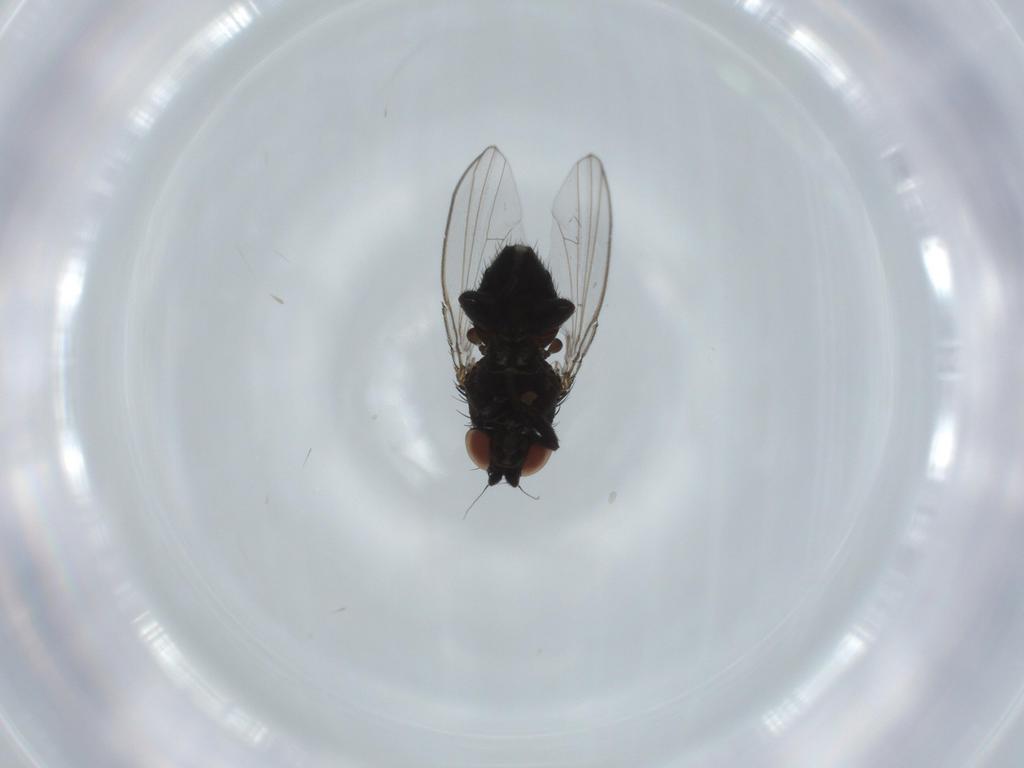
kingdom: Animalia
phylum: Arthropoda
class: Insecta
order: Diptera
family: Milichiidae
